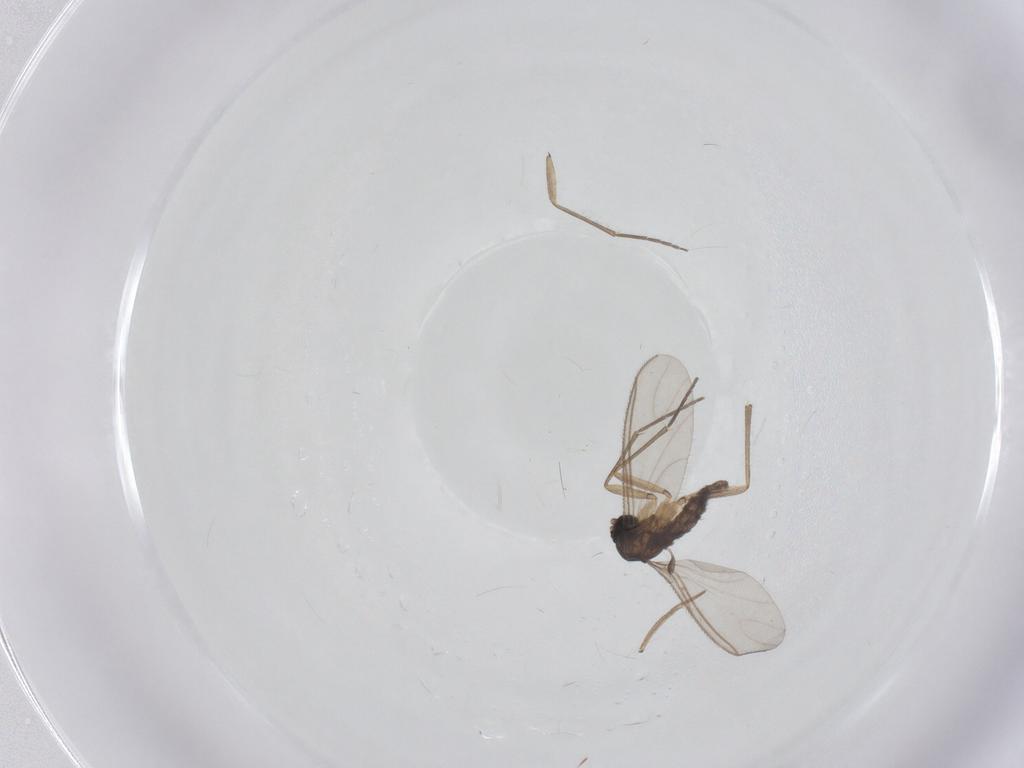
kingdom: Animalia
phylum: Arthropoda
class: Insecta
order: Diptera
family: Sciaridae
